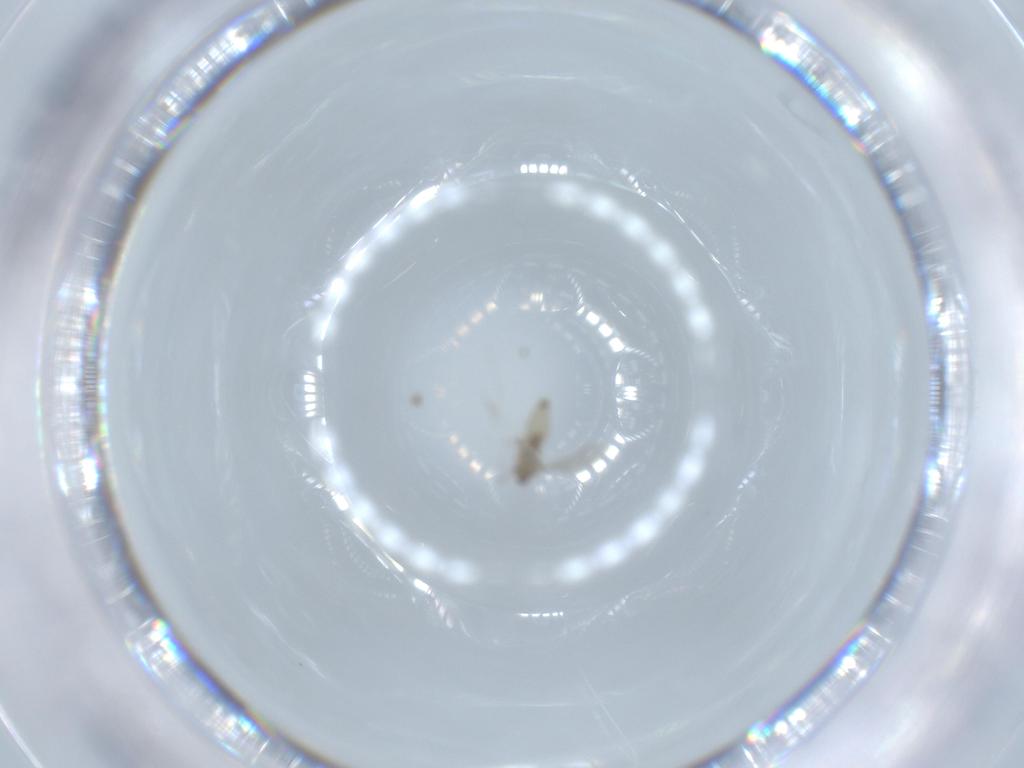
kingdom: Animalia
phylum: Arthropoda
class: Insecta
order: Diptera
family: Cecidomyiidae
